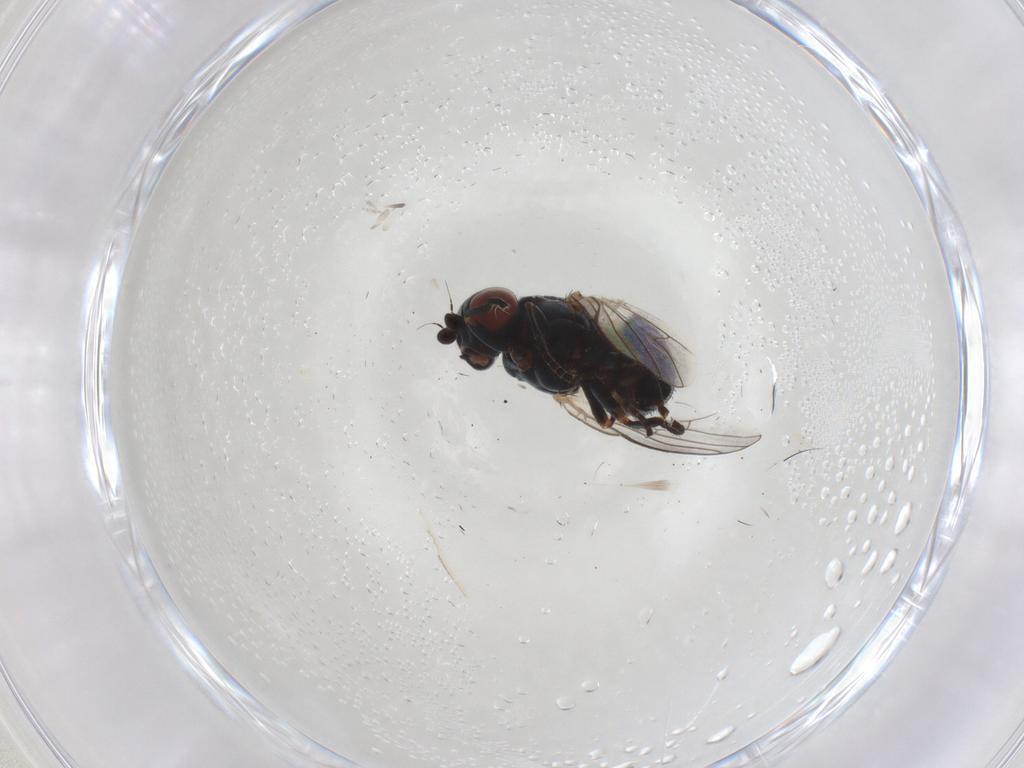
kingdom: Animalia
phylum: Arthropoda
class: Insecta
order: Diptera
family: Chamaemyiidae
